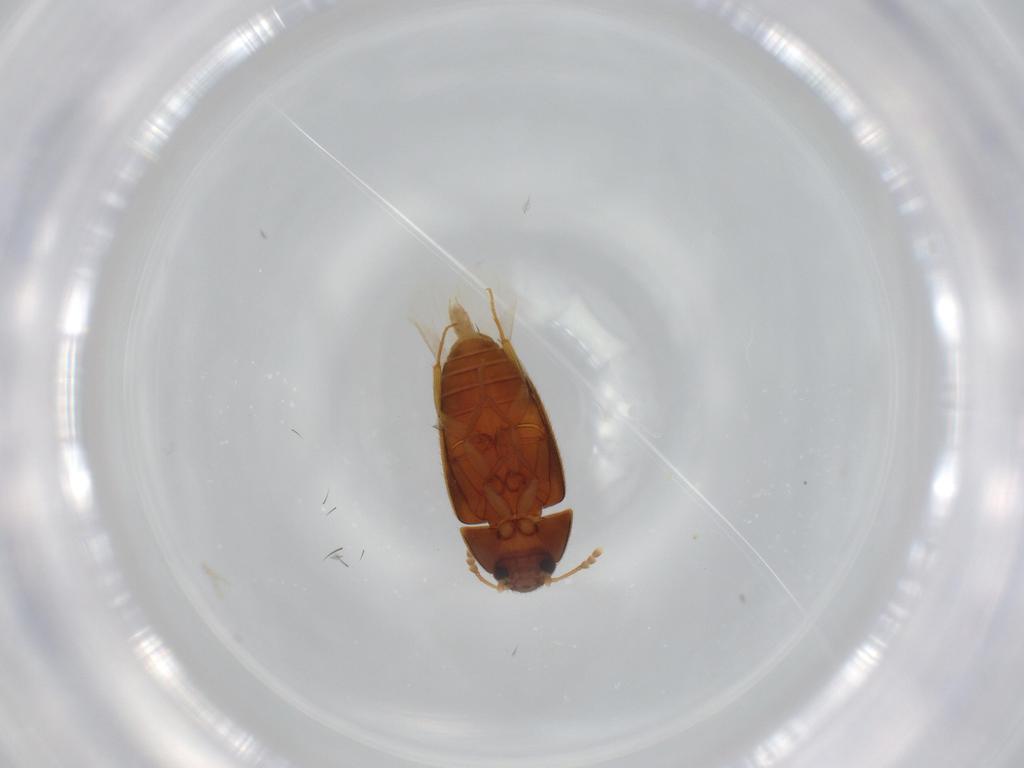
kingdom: Animalia
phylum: Arthropoda
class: Insecta
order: Coleoptera
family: Mycetophagidae
